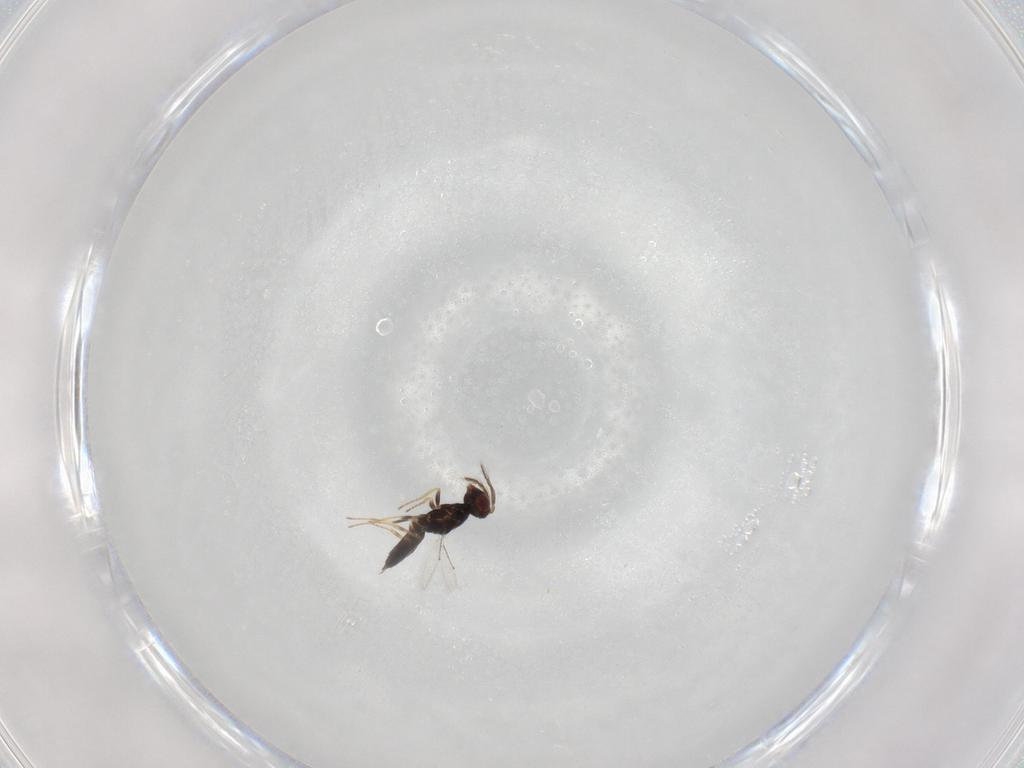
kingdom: Animalia
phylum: Arthropoda
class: Insecta
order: Hymenoptera
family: Eulophidae
